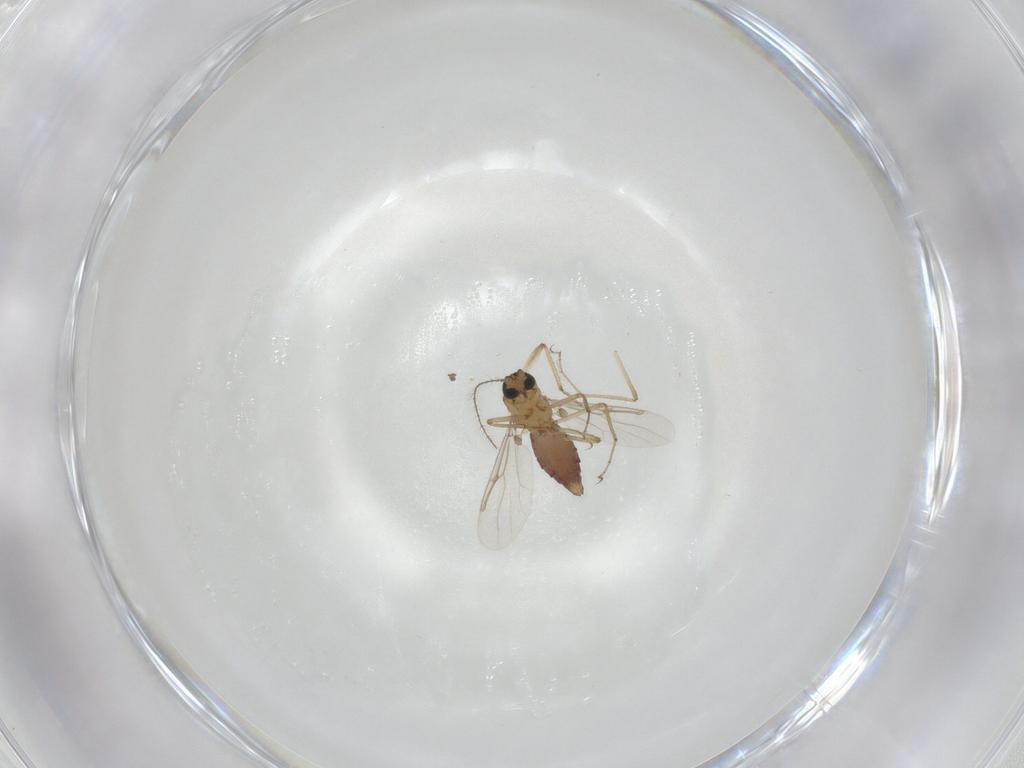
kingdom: Animalia
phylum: Arthropoda
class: Insecta
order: Diptera
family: Ceratopogonidae
